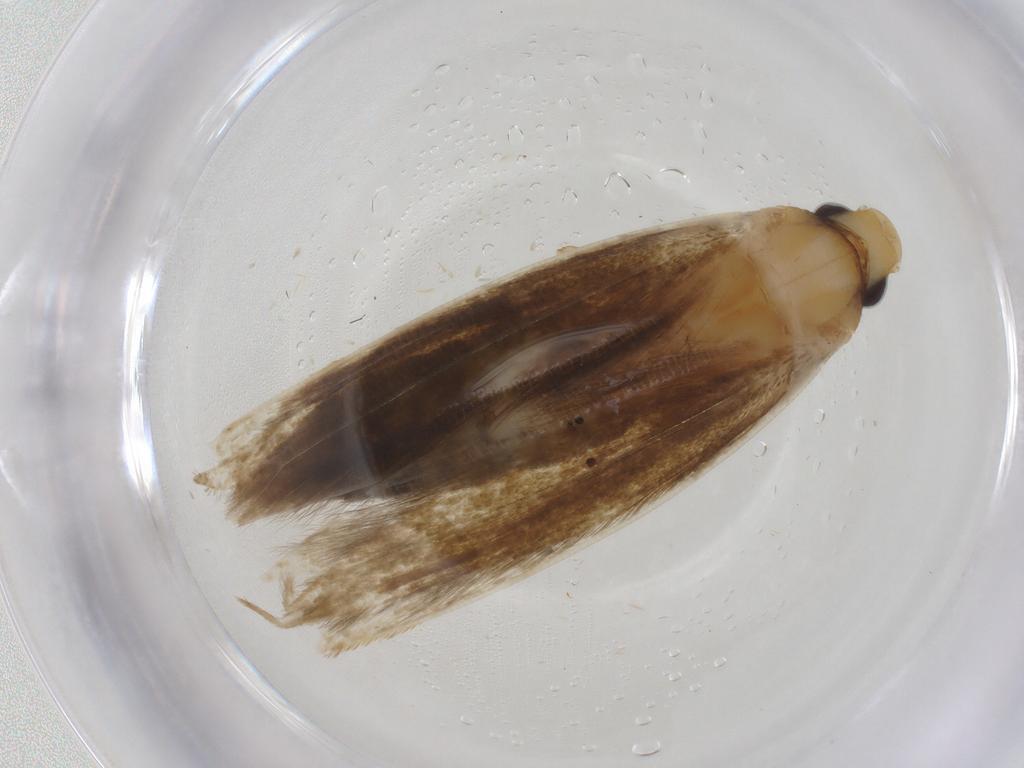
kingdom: Animalia
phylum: Arthropoda
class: Insecta
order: Lepidoptera
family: Tineidae
